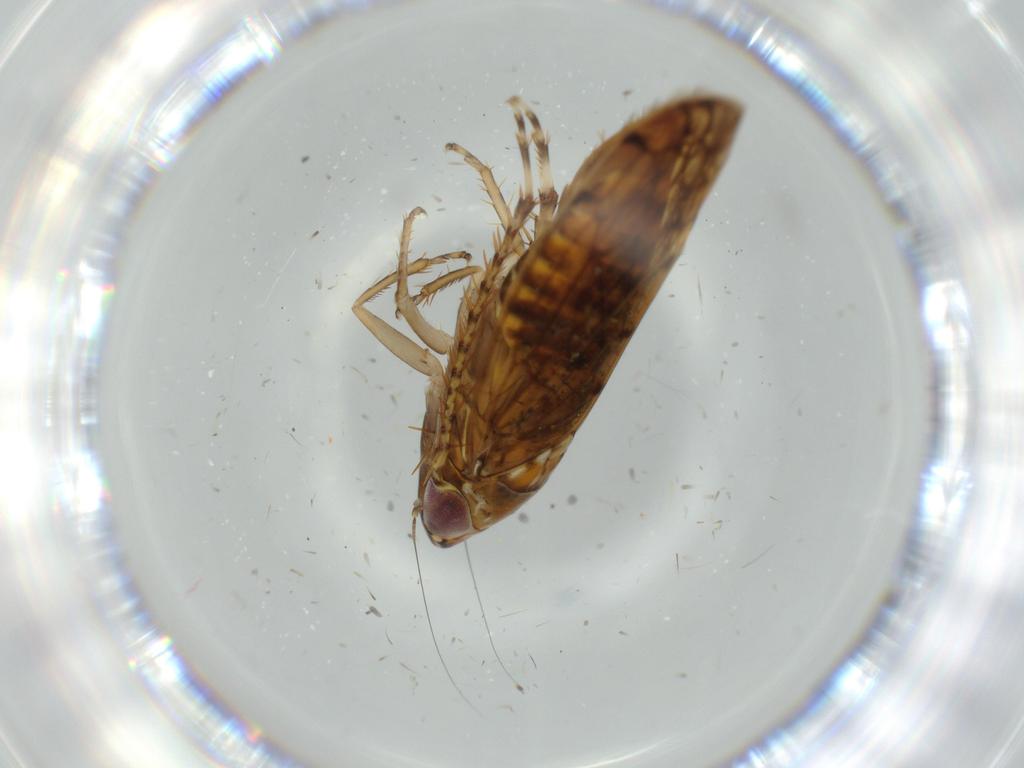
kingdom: Animalia
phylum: Arthropoda
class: Insecta
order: Hemiptera
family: Cicadellidae
